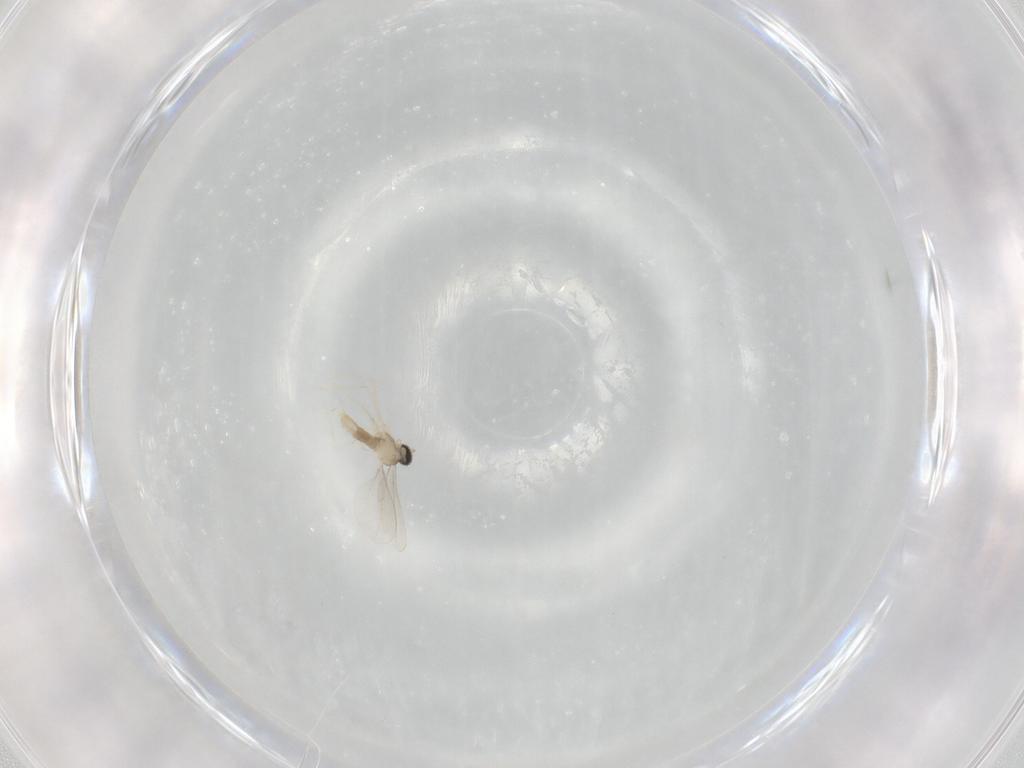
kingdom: Animalia
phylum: Arthropoda
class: Insecta
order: Diptera
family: Cecidomyiidae
